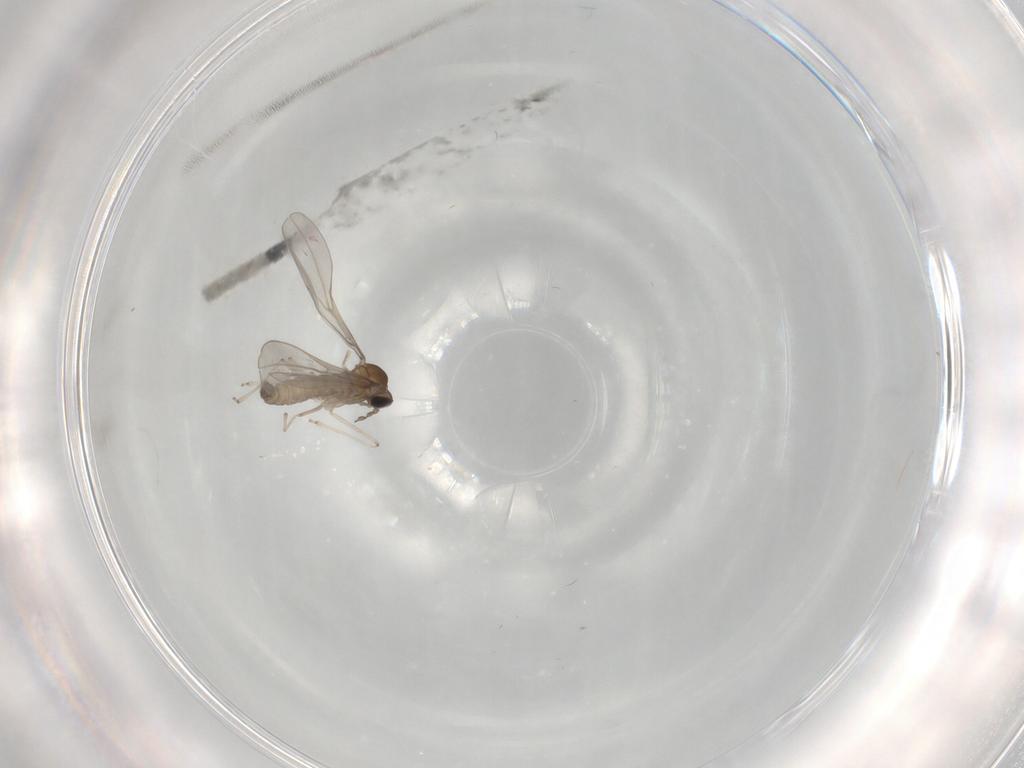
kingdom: Animalia
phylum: Arthropoda
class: Insecta
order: Diptera
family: Cecidomyiidae
